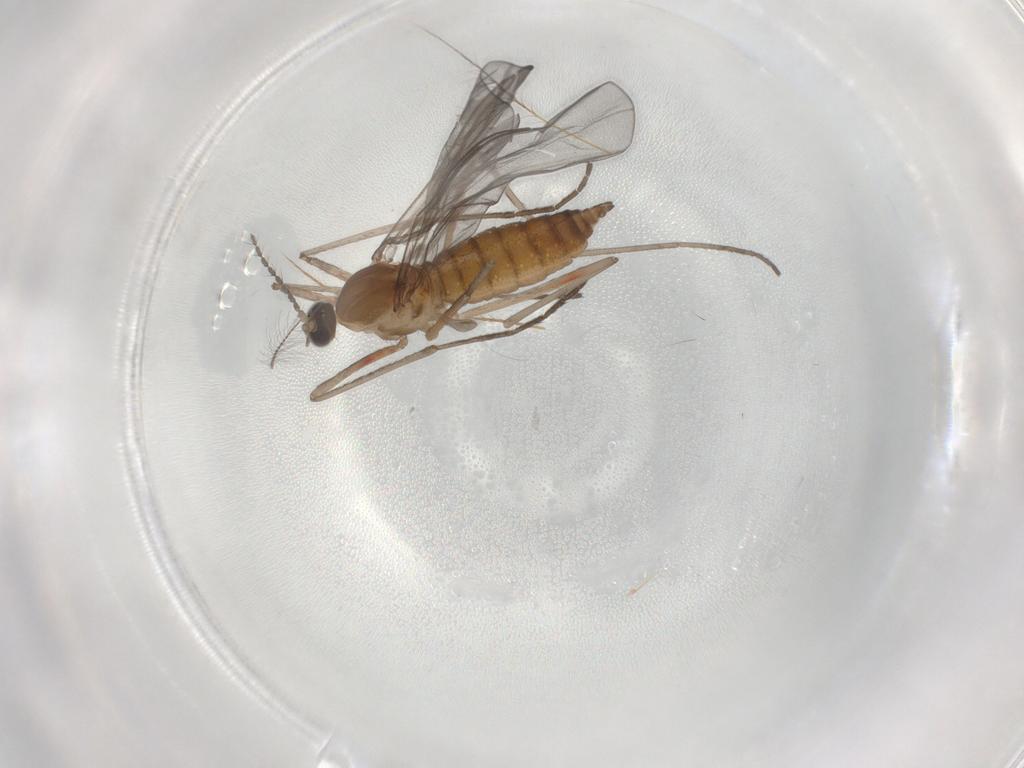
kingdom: Animalia
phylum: Arthropoda
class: Insecta
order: Diptera
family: Cecidomyiidae
